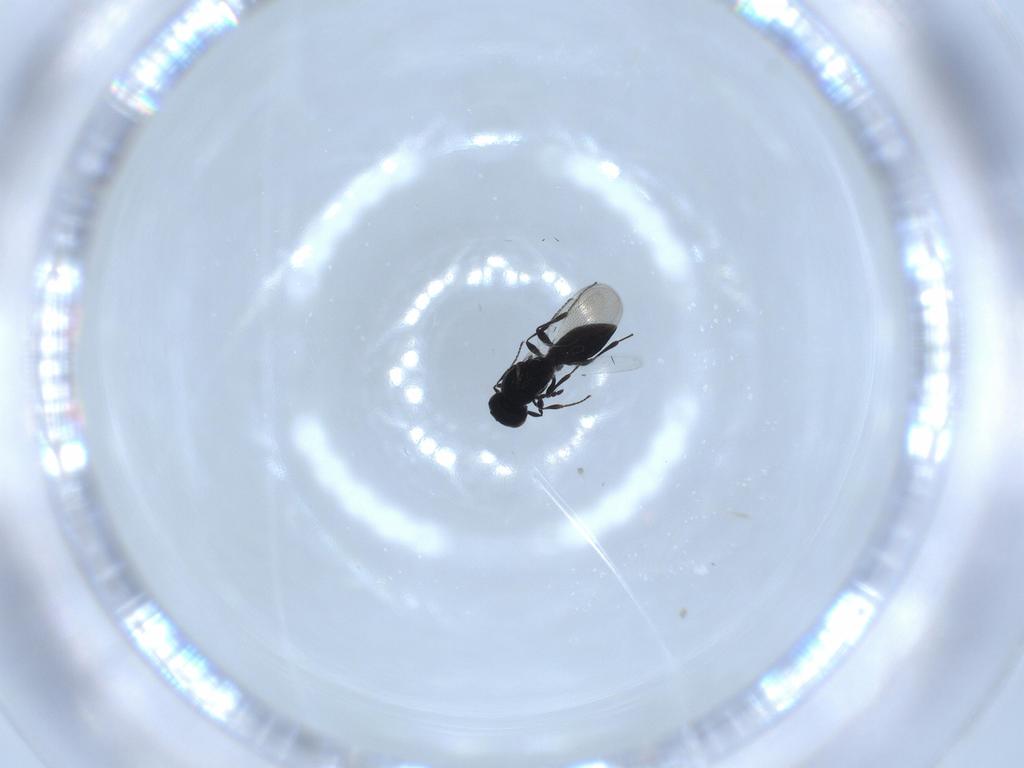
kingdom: Animalia
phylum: Arthropoda
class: Insecta
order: Hymenoptera
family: Platygastridae
